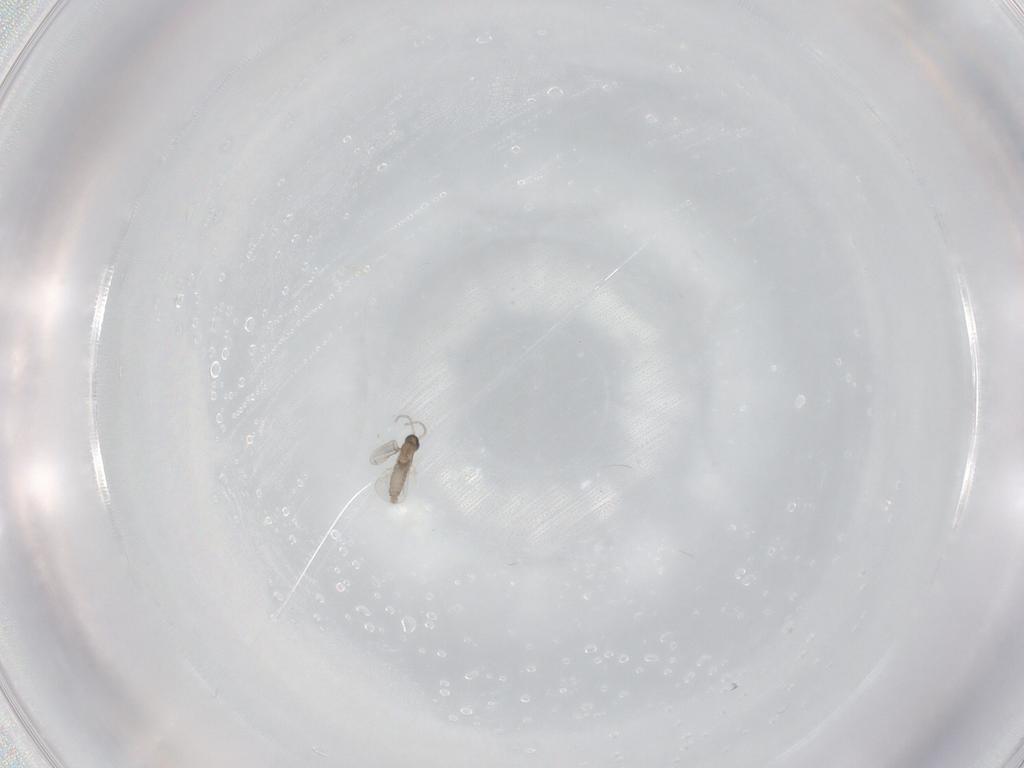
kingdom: Animalia
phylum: Arthropoda
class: Insecta
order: Diptera
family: Cecidomyiidae
